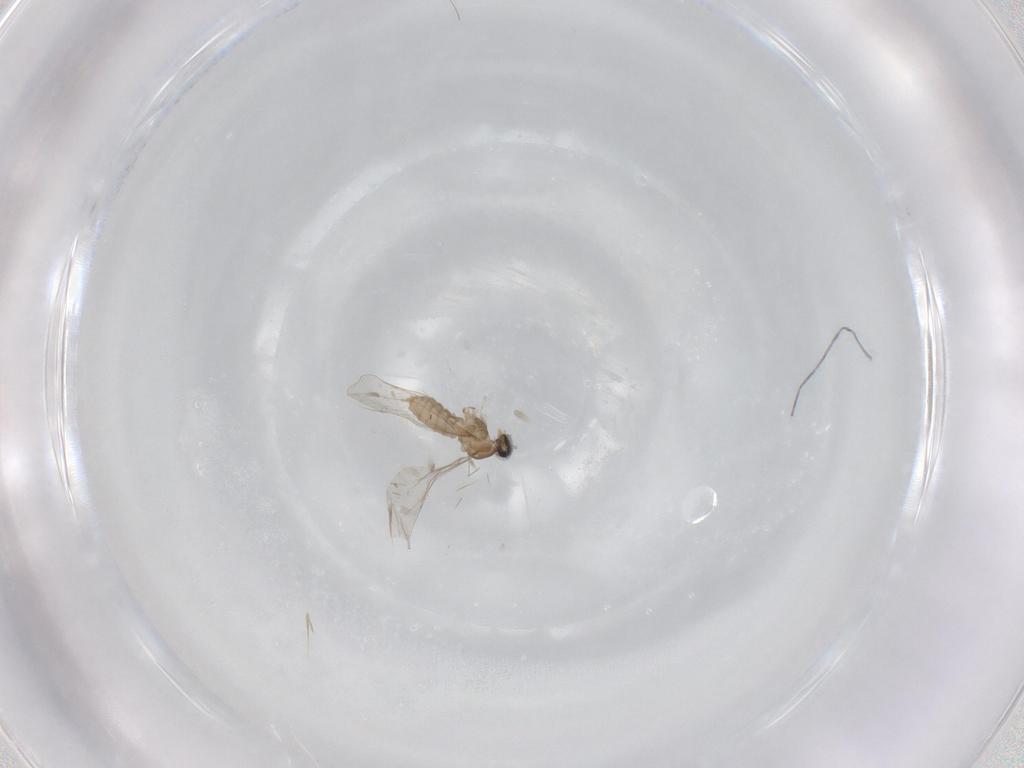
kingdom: Animalia
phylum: Arthropoda
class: Insecta
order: Diptera
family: Cecidomyiidae
